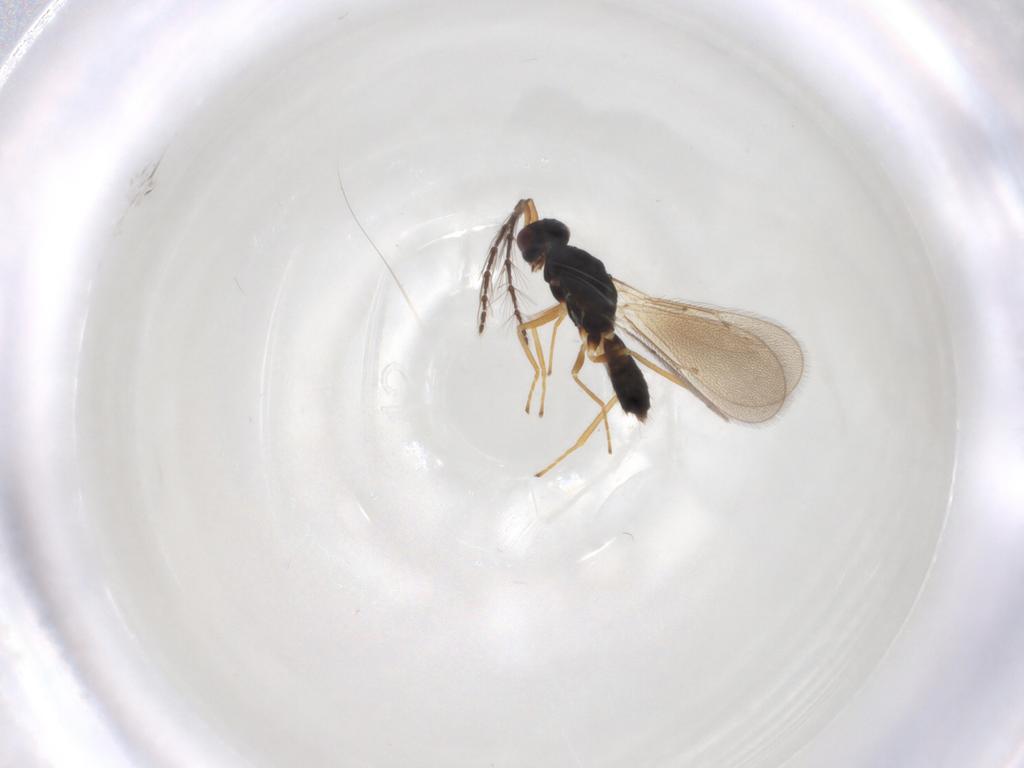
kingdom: Animalia
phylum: Arthropoda
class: Insecta
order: Hymenoptera
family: Eulophidae
